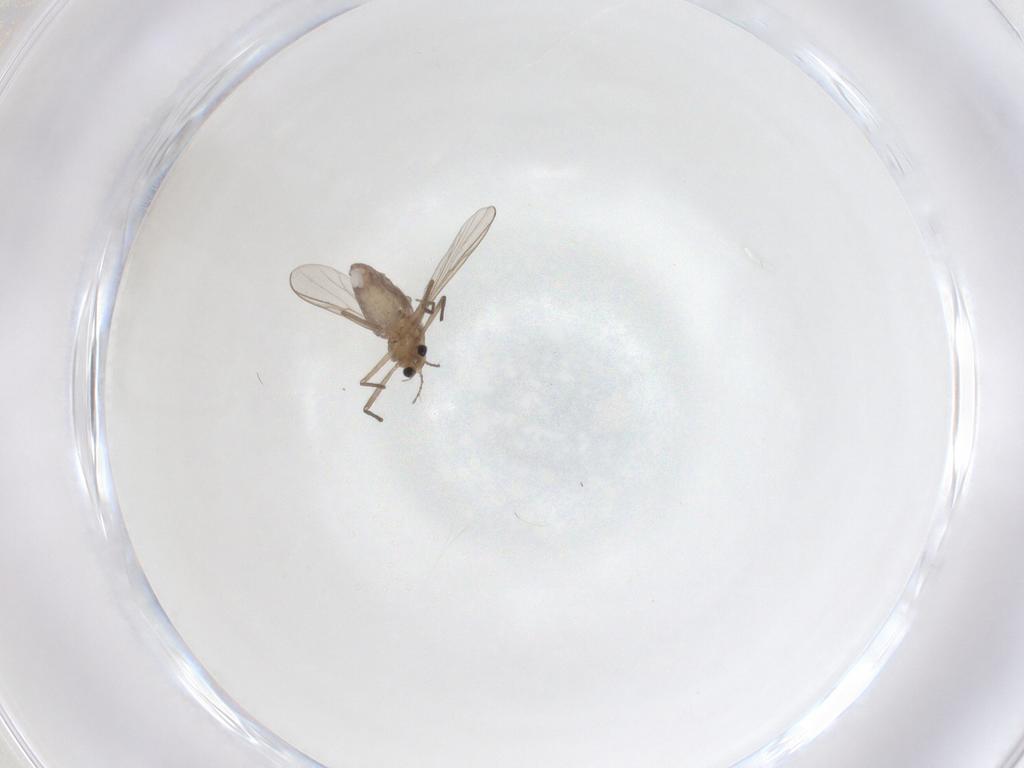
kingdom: Animalia
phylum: Arthropoda
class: Insecta
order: Diptera
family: Chironomidae
